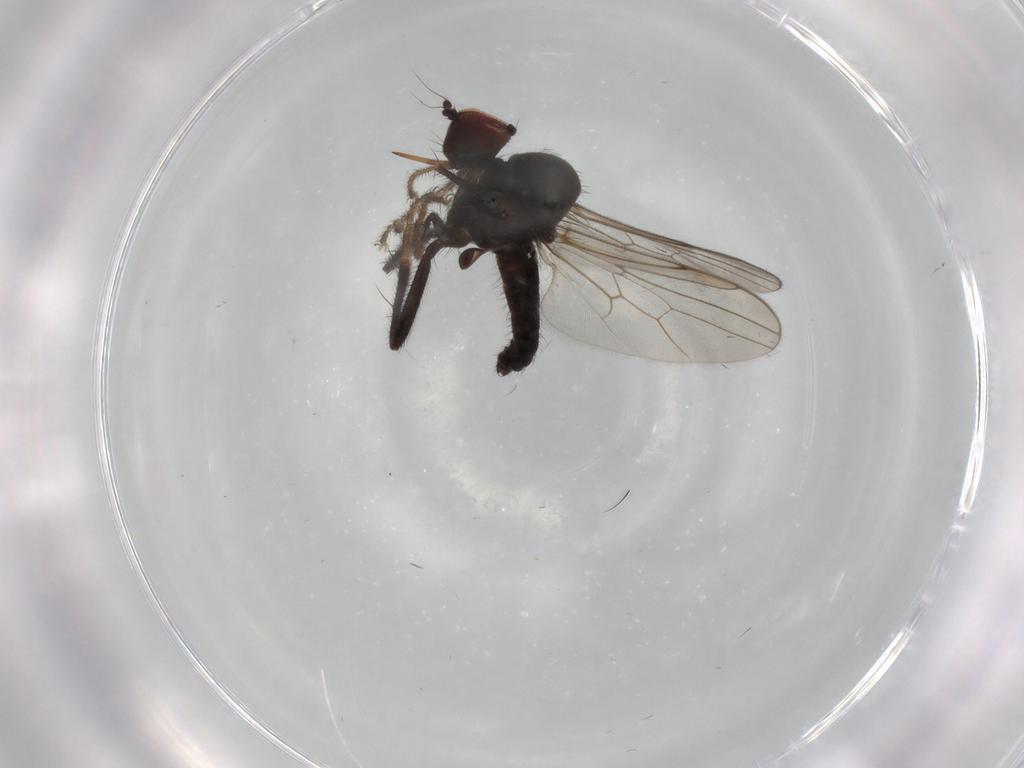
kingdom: Animalia
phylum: Arthropoda
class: Insecta
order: Diptera
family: Hybotidae
